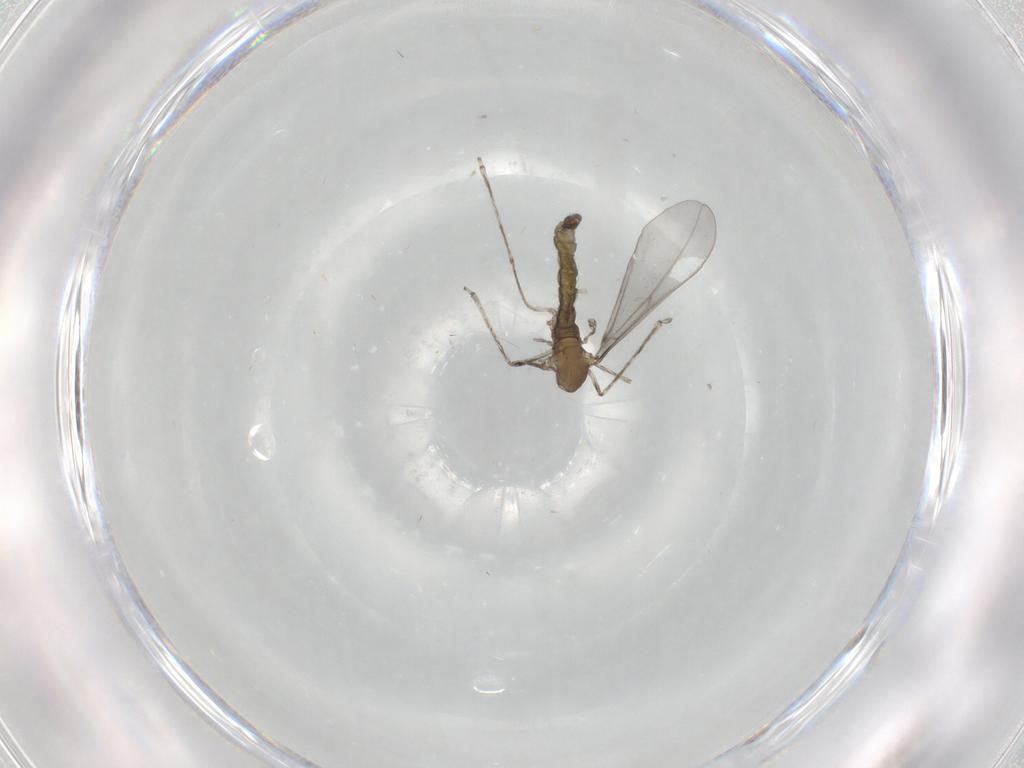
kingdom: Animalia
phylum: Arthropoda
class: Insecta
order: Diptera
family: Cecidomyiidae
